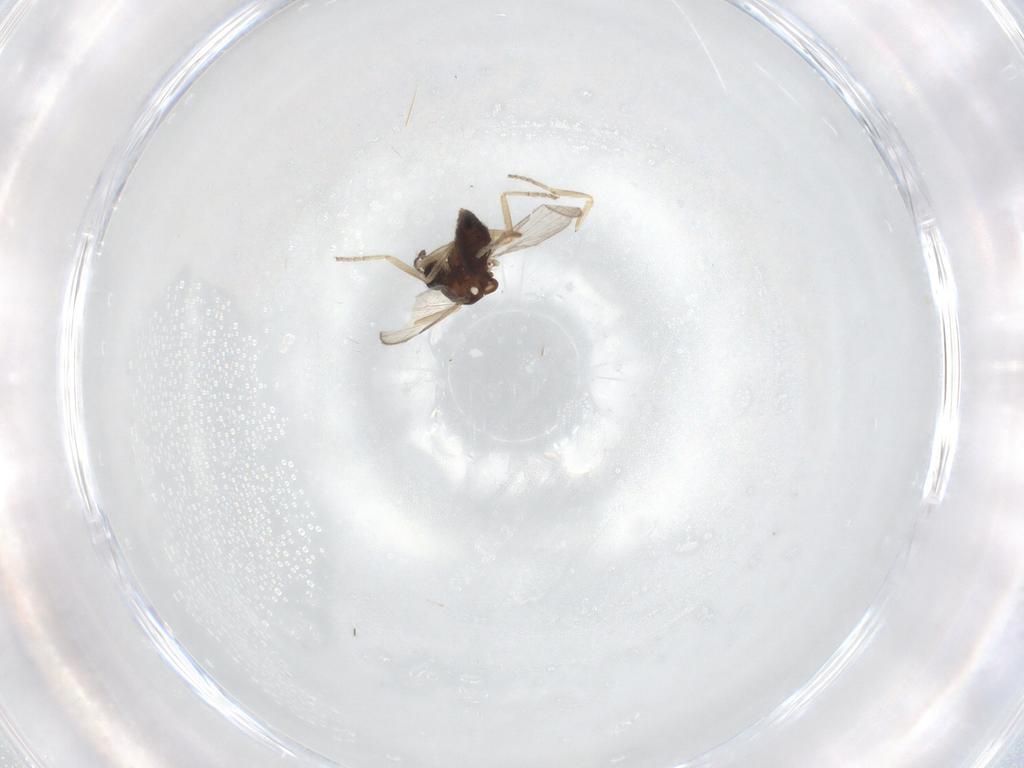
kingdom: Animalia
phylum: Arthropoda
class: Insecta
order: Diptera
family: Ceratopogonidae
